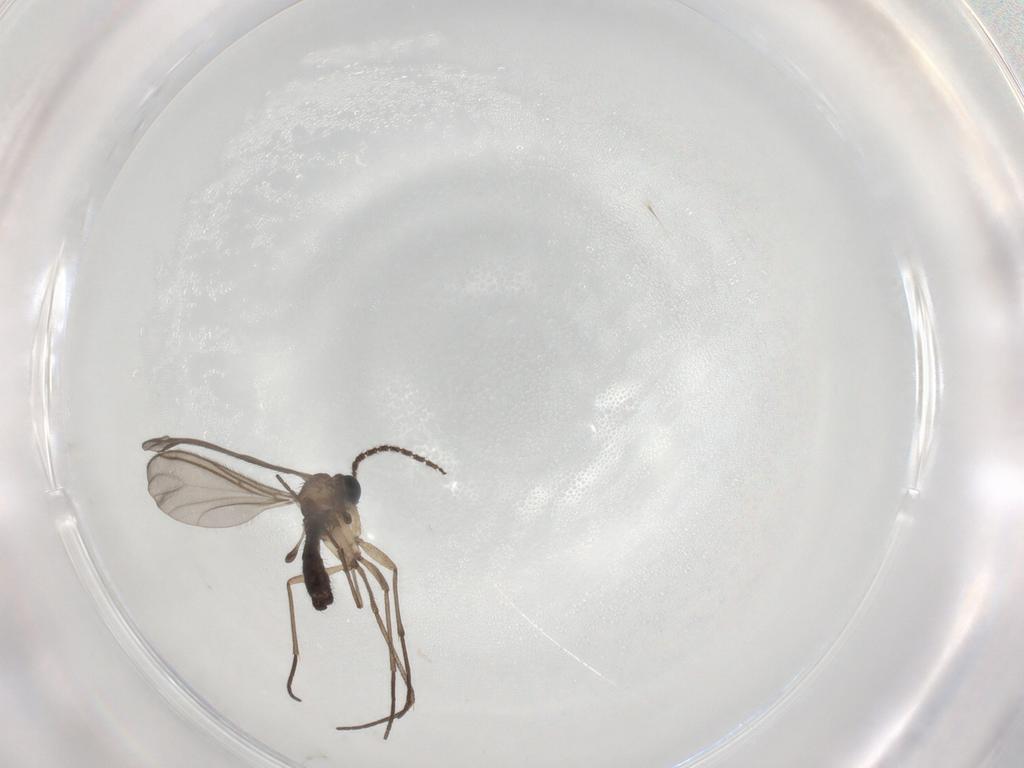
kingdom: Animalia
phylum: Arthropoda
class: Insecta
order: Diptera
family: Sciaridae
